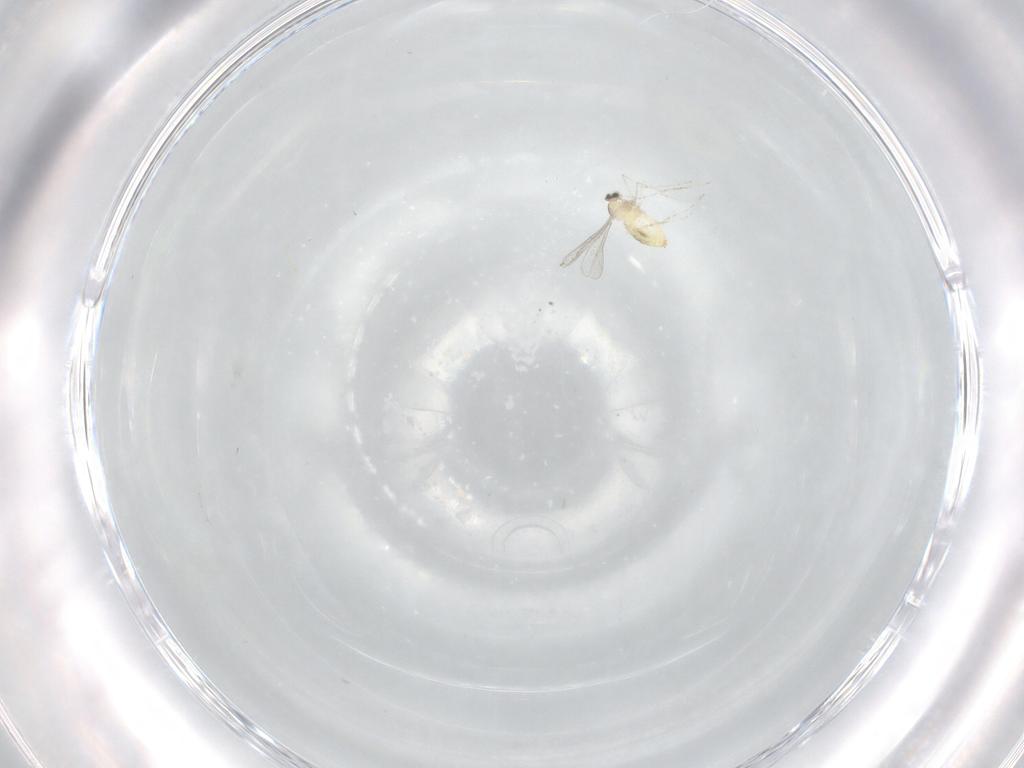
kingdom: Animalia
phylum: Arthropoda
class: Insecta
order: Diptera
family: Cecidomyiidae
